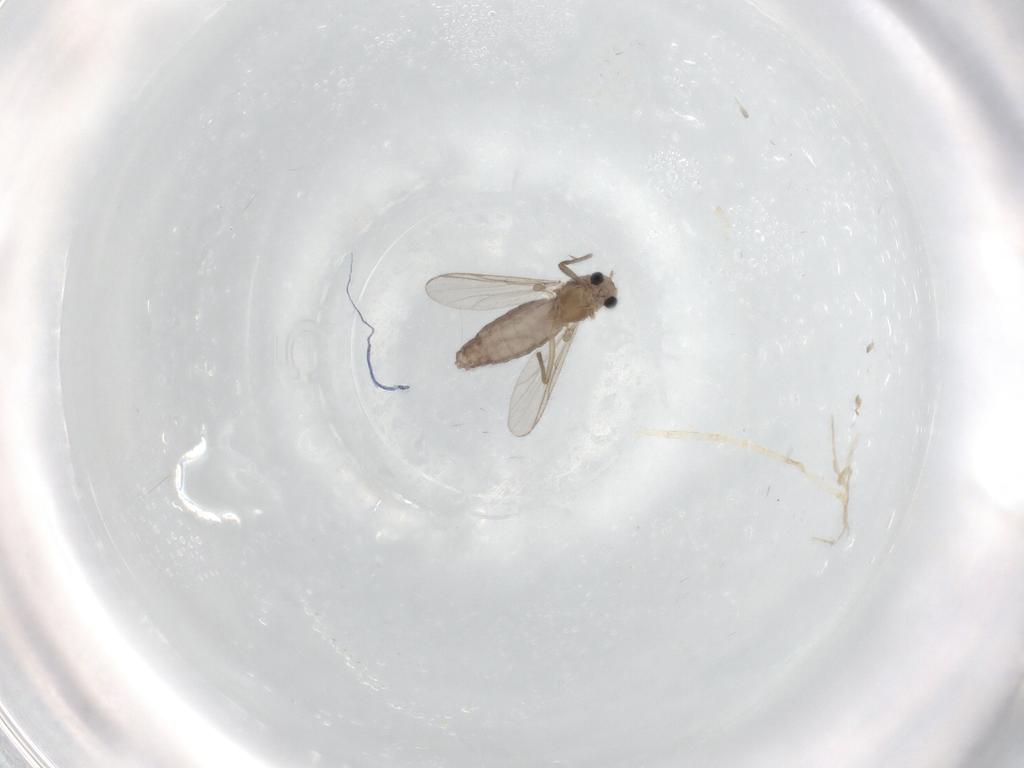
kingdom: Animalia
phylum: Arthropoda
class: Insecta
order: Diptera
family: Chironomidae
